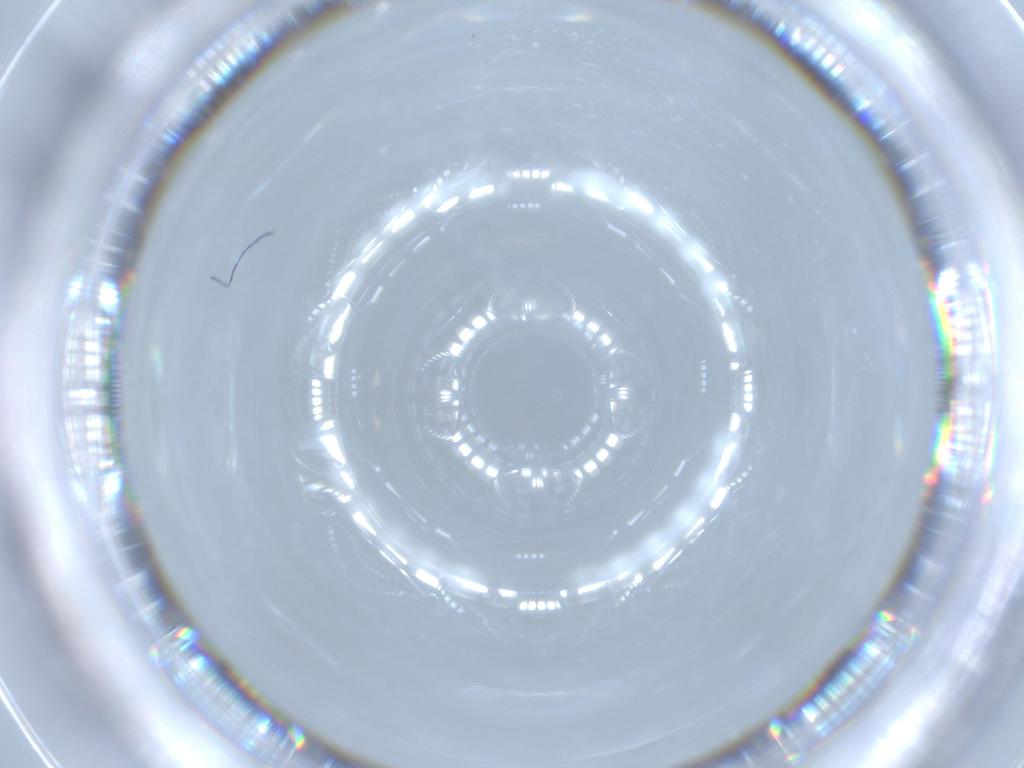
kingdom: Animalia
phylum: Arthropoda
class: Insecta
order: Diptera
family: Cecidomyiidae
